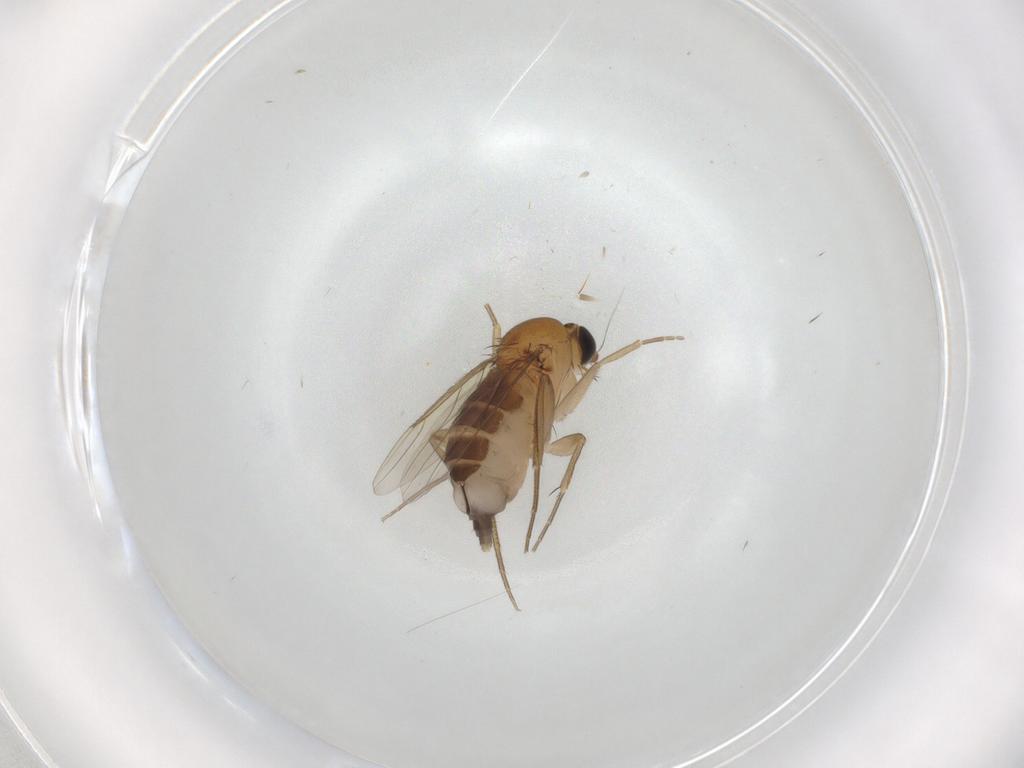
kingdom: Animalia
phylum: Arthropoda
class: Insecta
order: Diptera
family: Phoridae
